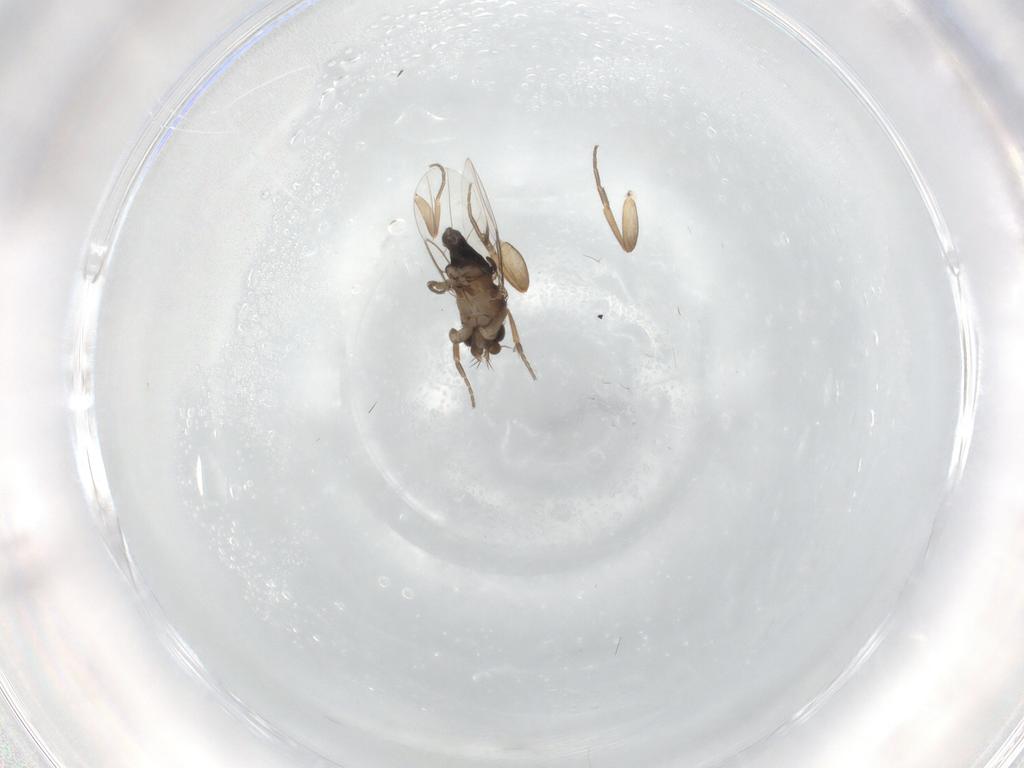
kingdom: Animalia
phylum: Arthropoda
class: Insecta
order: Diptera
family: Phoridae
